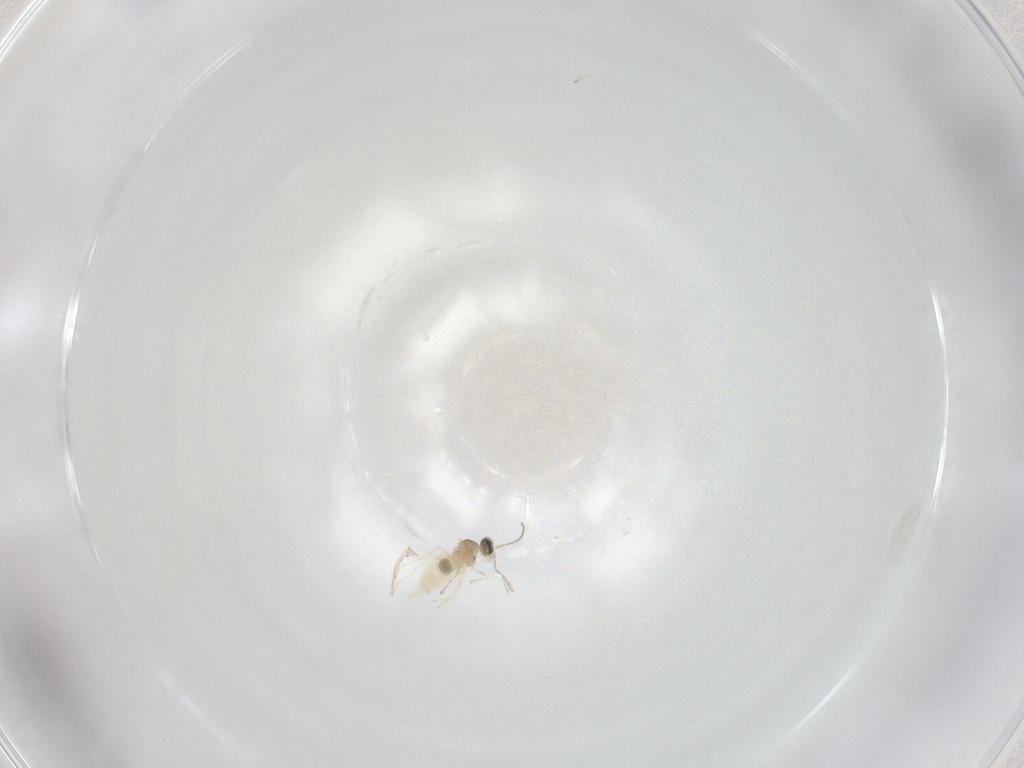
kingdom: Animalia
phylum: Arthropoda
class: Insecta
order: Diptera
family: Cecidomyiidae
